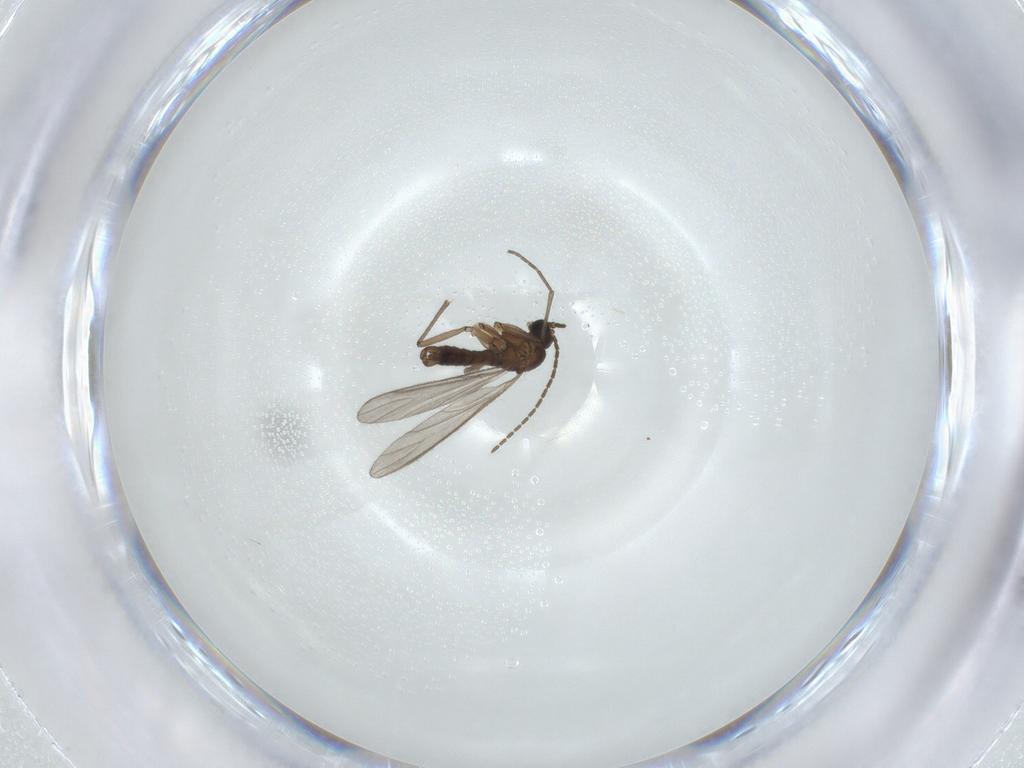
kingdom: Animalia
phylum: Arthropoda
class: Insecta
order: Diptera
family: Sciaridae
